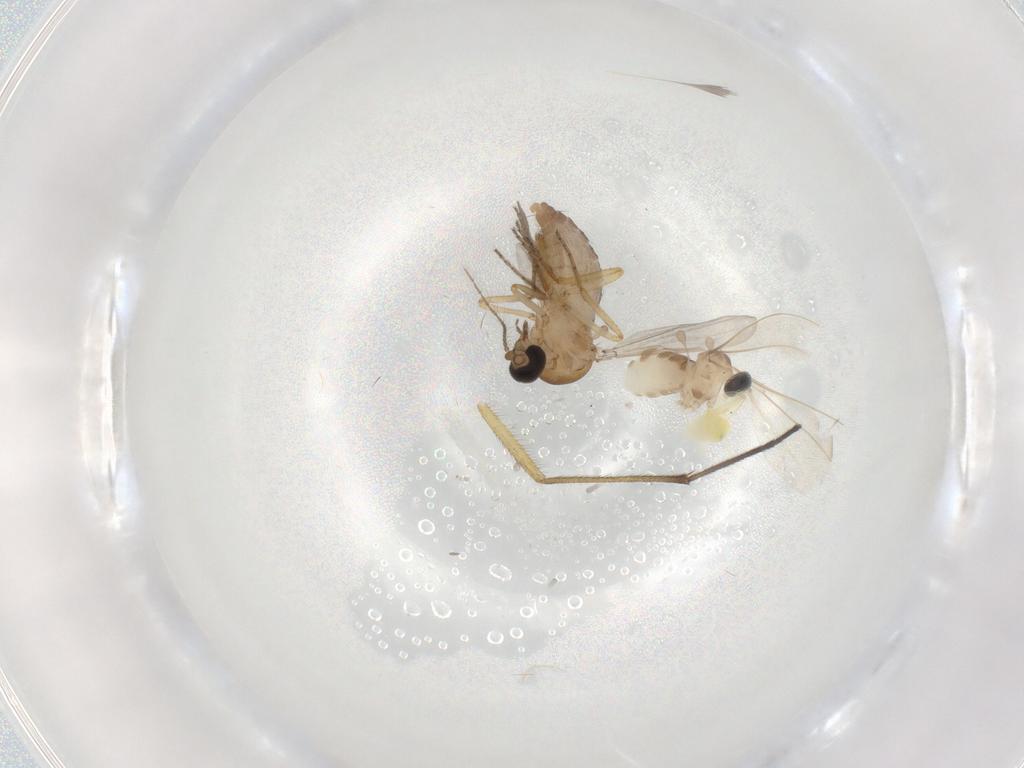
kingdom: Animalia
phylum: Arthropoda
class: Insecta
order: Diptera
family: Ceratopogonidae
